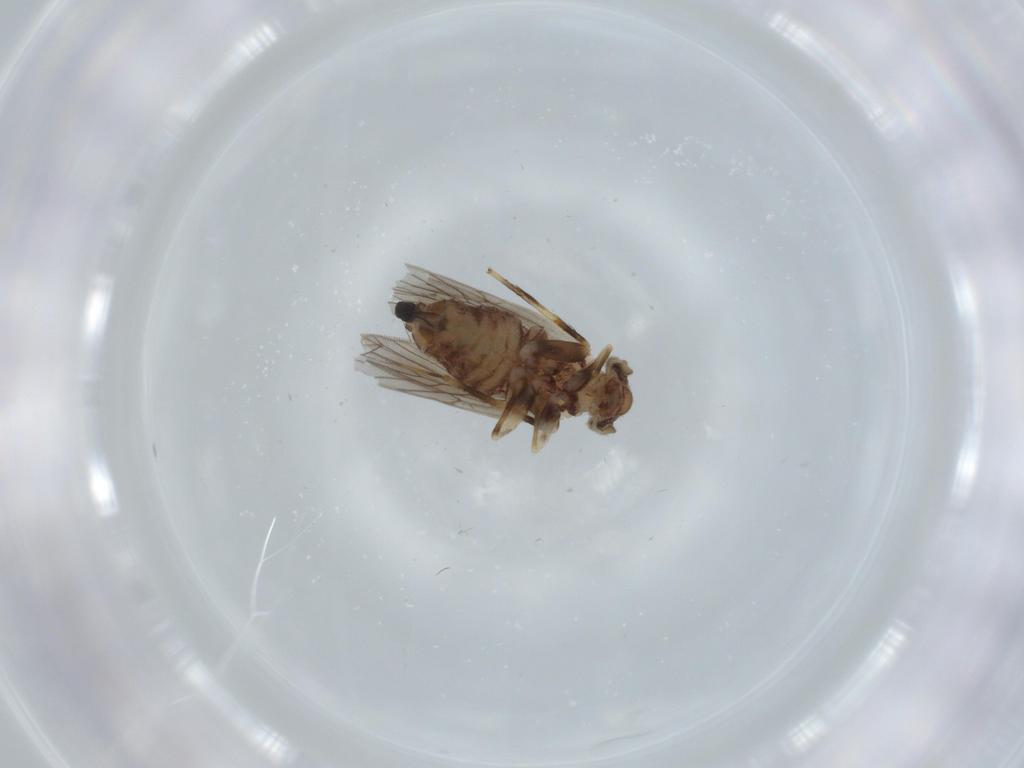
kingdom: Animalia
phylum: Arthropoda
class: Insecta
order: Psocodea
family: Lepidopsocidae
